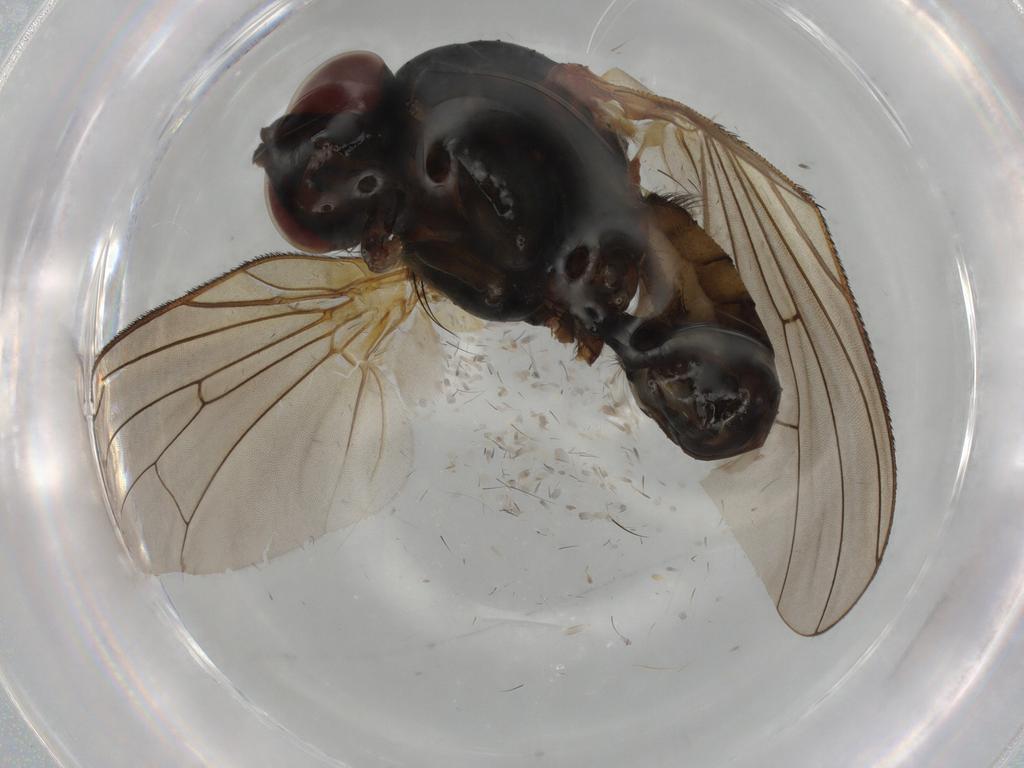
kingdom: Animalia
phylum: Arthropoda
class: Insecta
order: Diptera
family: Anthomyiidae
